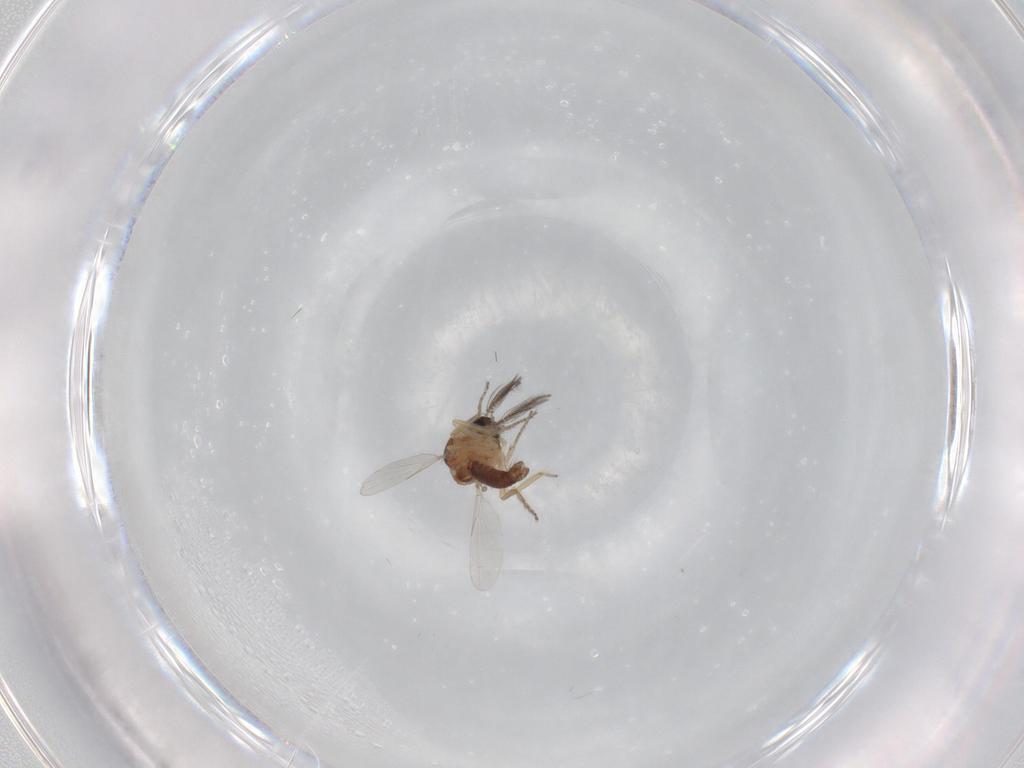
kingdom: Animalia
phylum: Arthropoda
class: Insecta
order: Diptera
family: Ceratopogonidae
